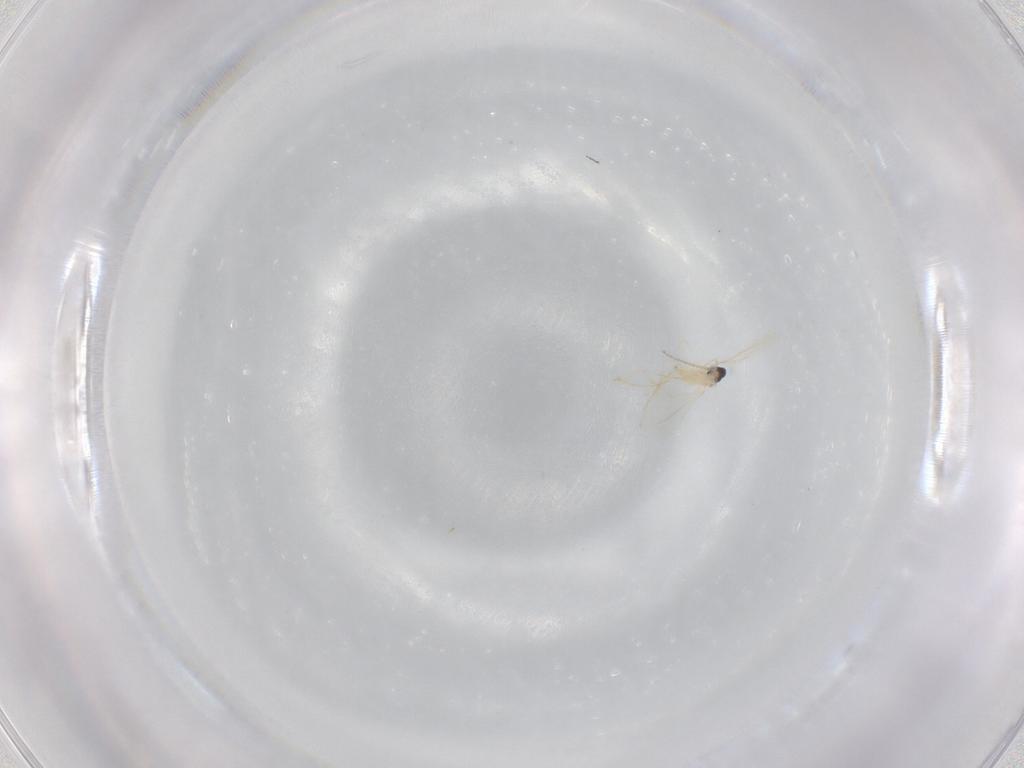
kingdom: Animalia
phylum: Arthropoda
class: Insecta
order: Diptera
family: Cecidomyiidae
